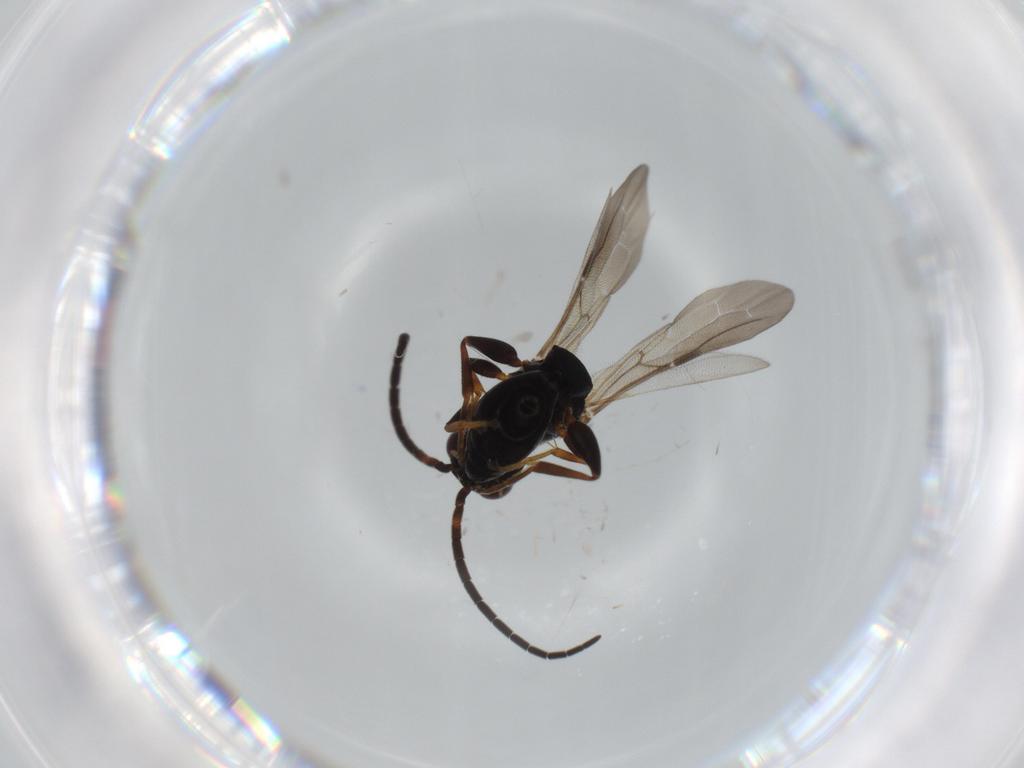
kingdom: Animalia
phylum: Arthropoda
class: Insecta
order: Hymenoptera
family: Bethylidae
